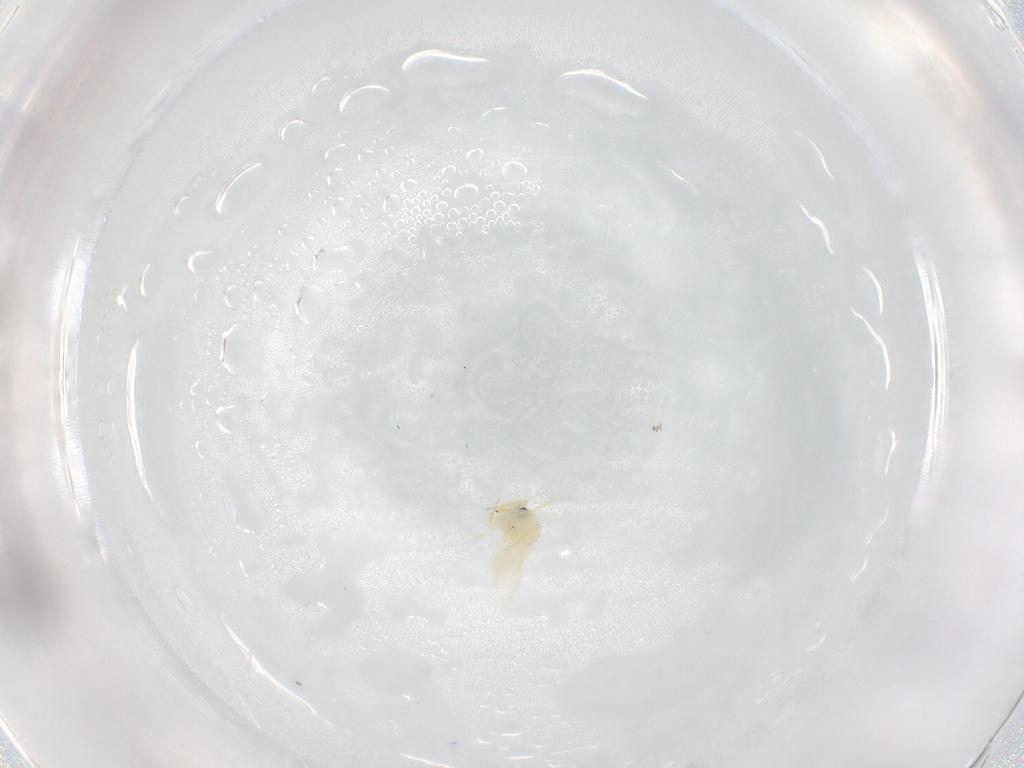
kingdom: Animalia
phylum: Arthropoda
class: Insecta
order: Hemiptera
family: Aleyrodidae
